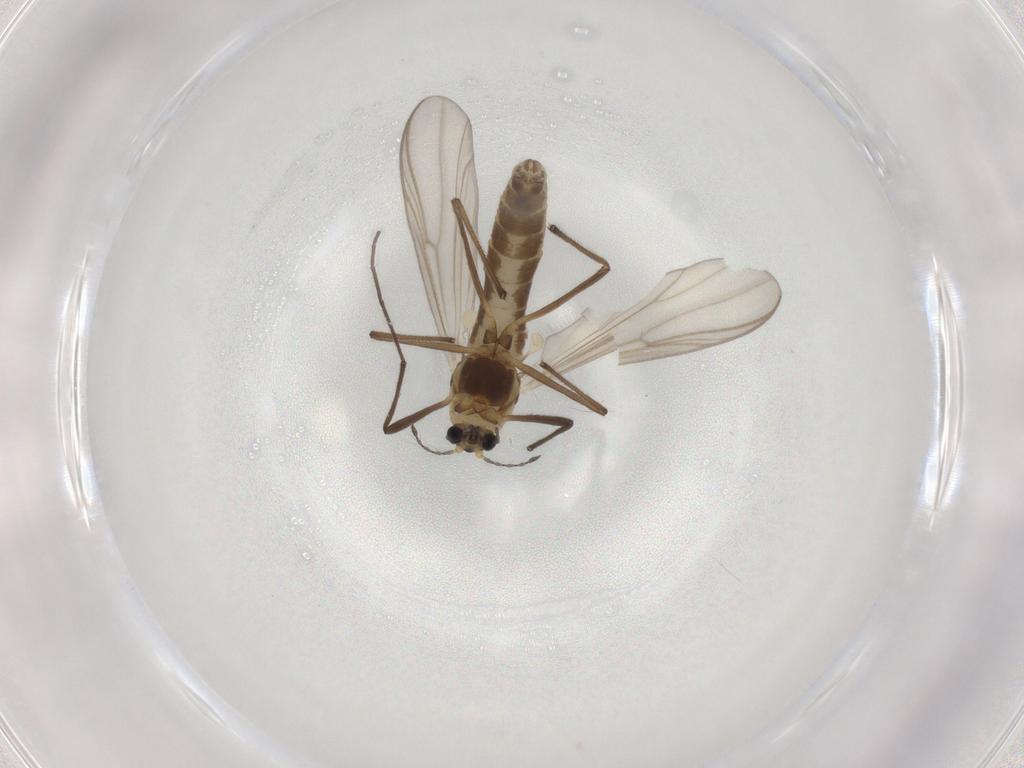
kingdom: Animalia
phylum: Arthropoda
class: Insecta
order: Diptera
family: Chironomidae
